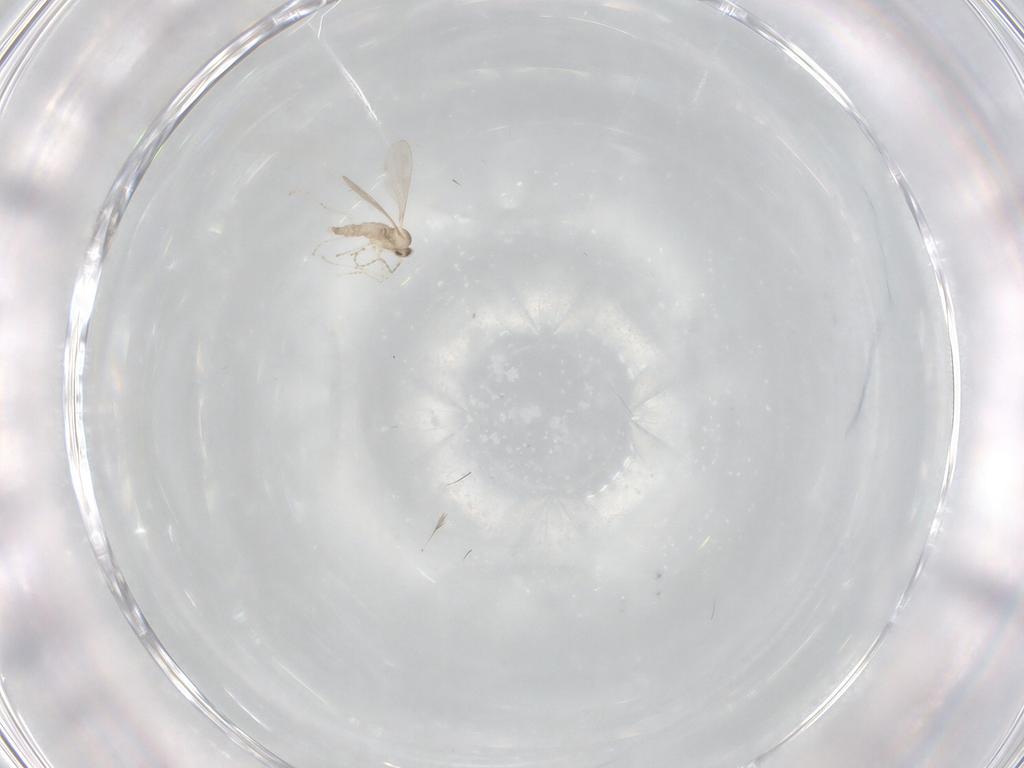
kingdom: Animalia
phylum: Arthropoda
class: Insecta
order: Diptera
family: Cecidomyiidae
